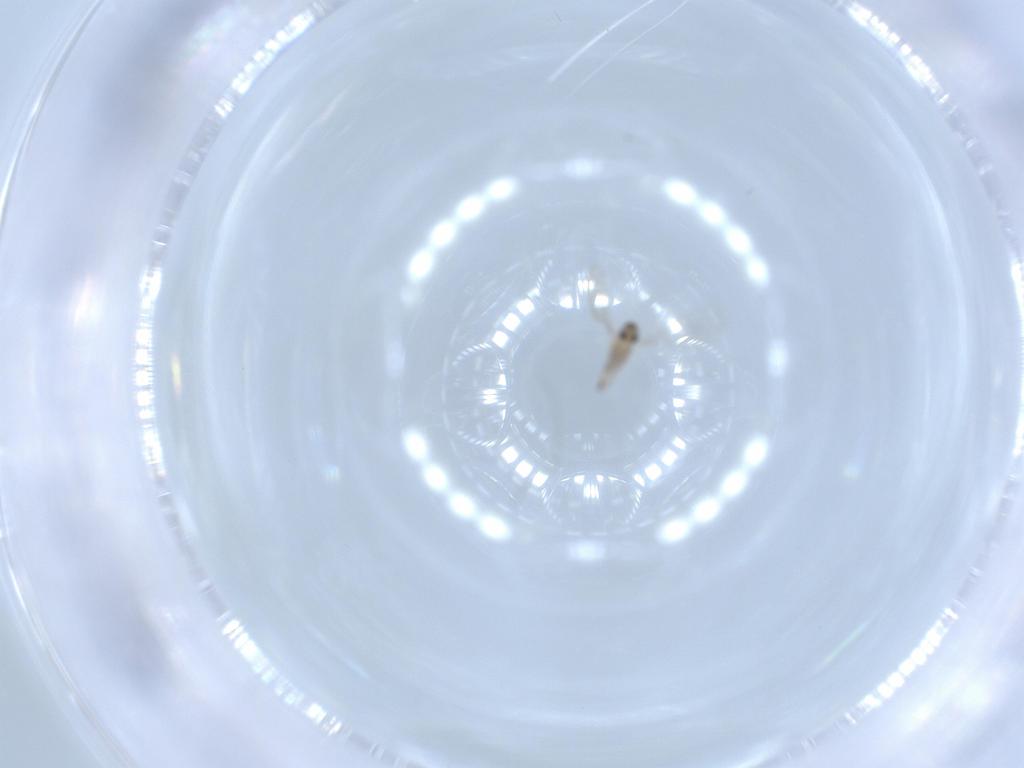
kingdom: Animalia
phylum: Arthropoda
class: Insecta
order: Diptera
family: Cecidomyiidae
